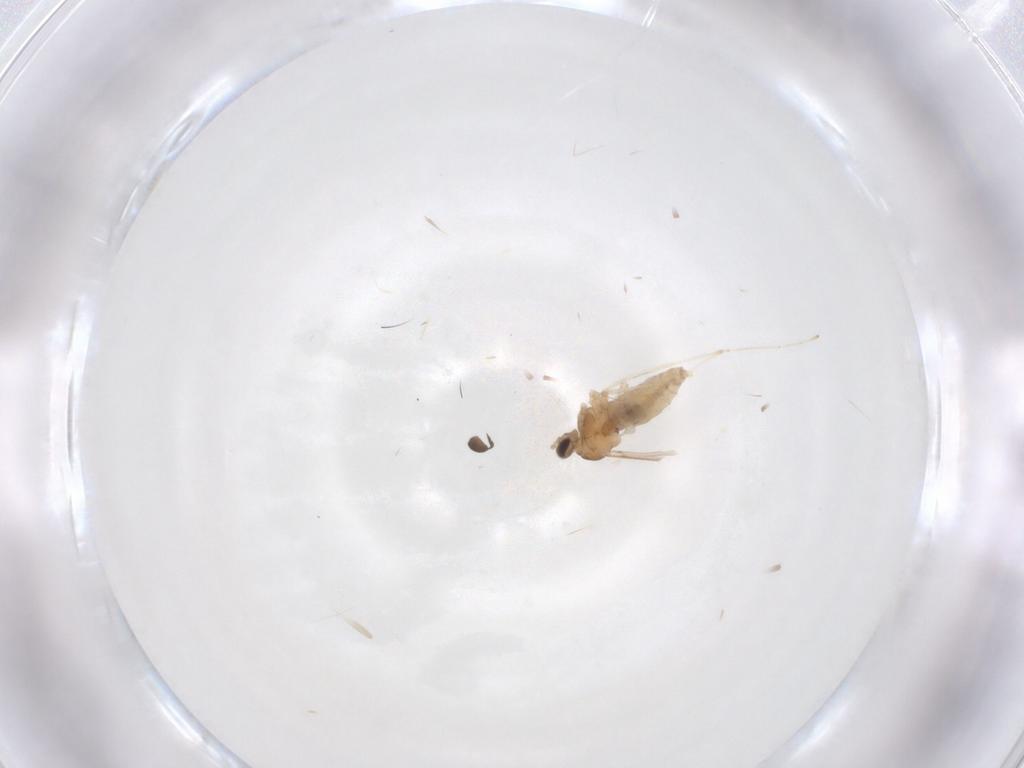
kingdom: Animalia
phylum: Arthropoda
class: Insecta
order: Diptera
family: Cecidomyiidae
